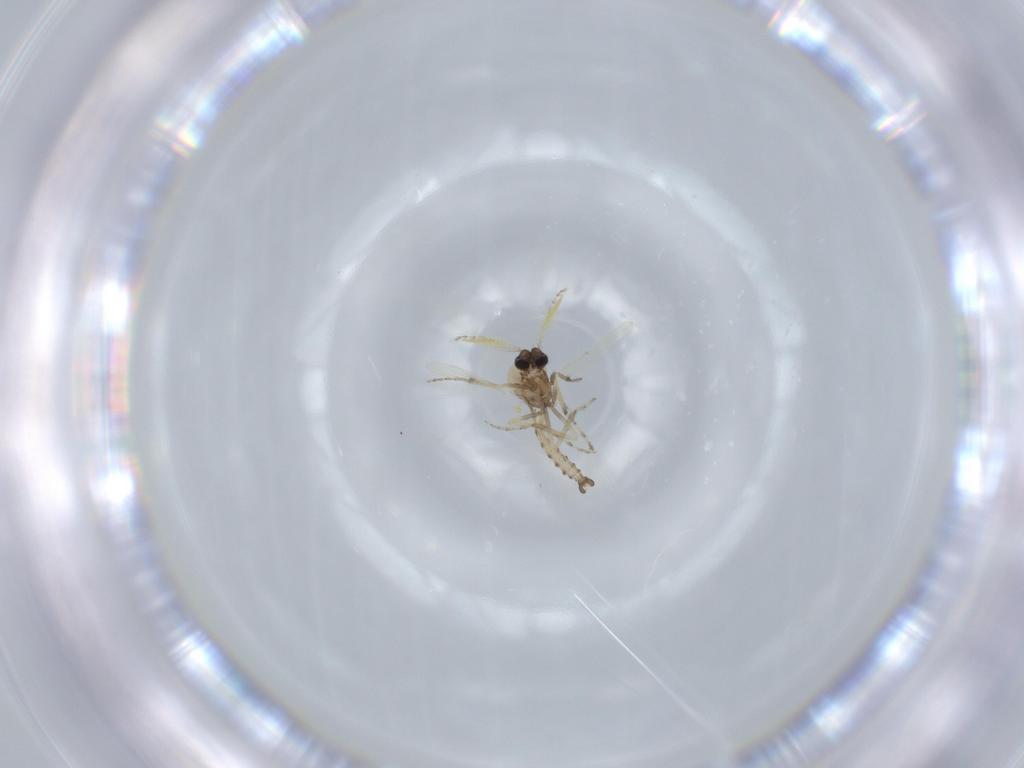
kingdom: Animalia
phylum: Arthropoda
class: Insecta
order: Diptera
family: Ceratopogonidae
